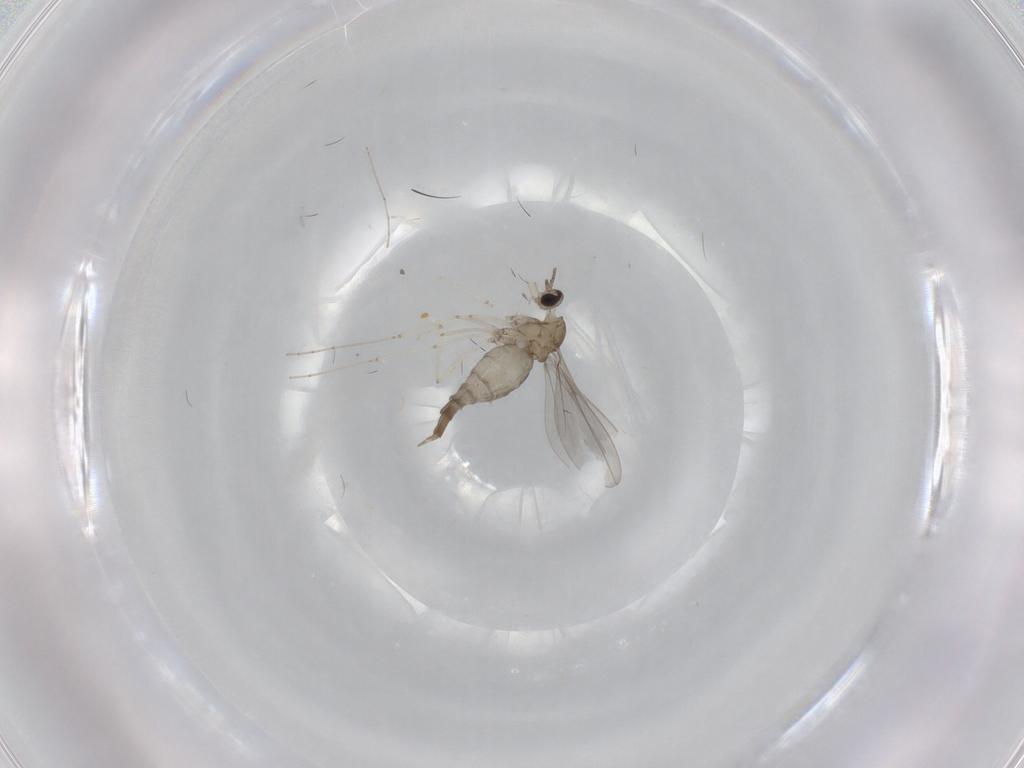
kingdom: Animalia
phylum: Arthropoda
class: Insecta
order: Diptera
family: Cecidomyiidae
